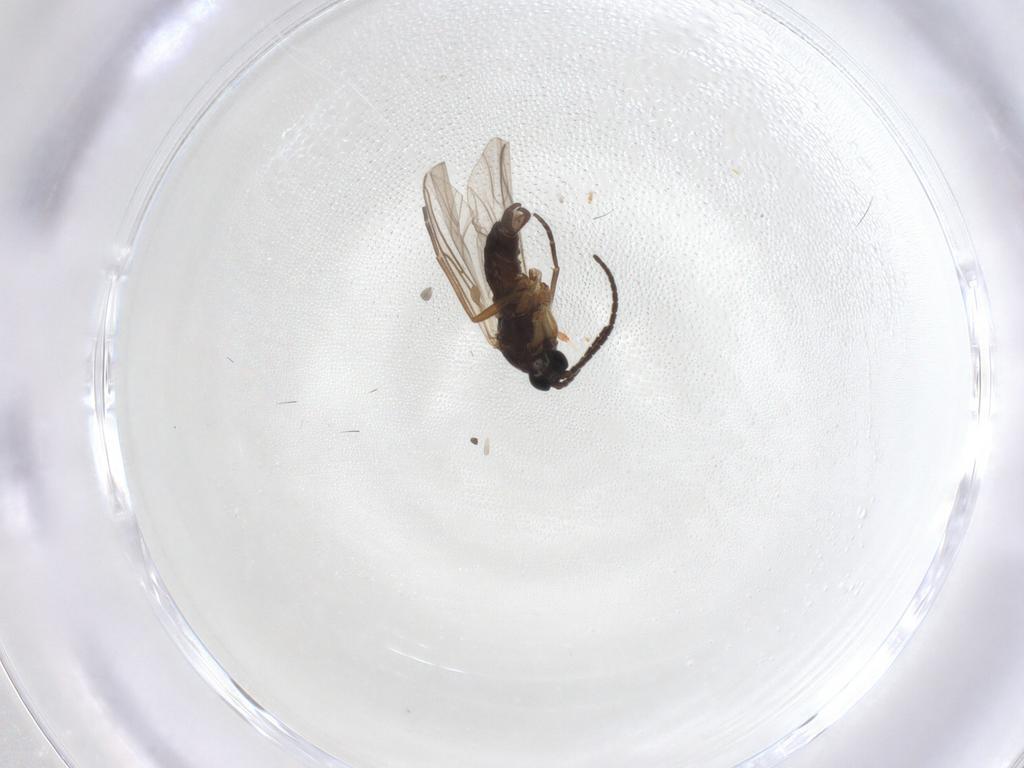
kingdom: Animalia
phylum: Arthropoda
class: Insecta
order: Diptera
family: Sciaridae
